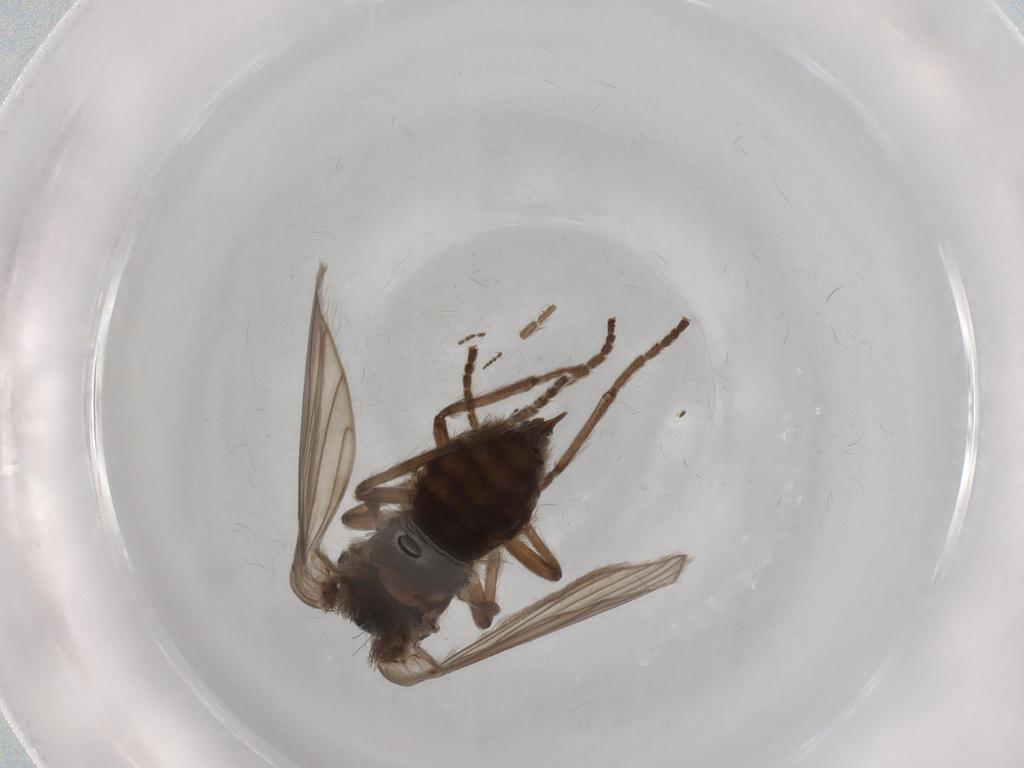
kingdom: Animalia
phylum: Arthropoda
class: Insecta
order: Diptera
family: Psychodidae
